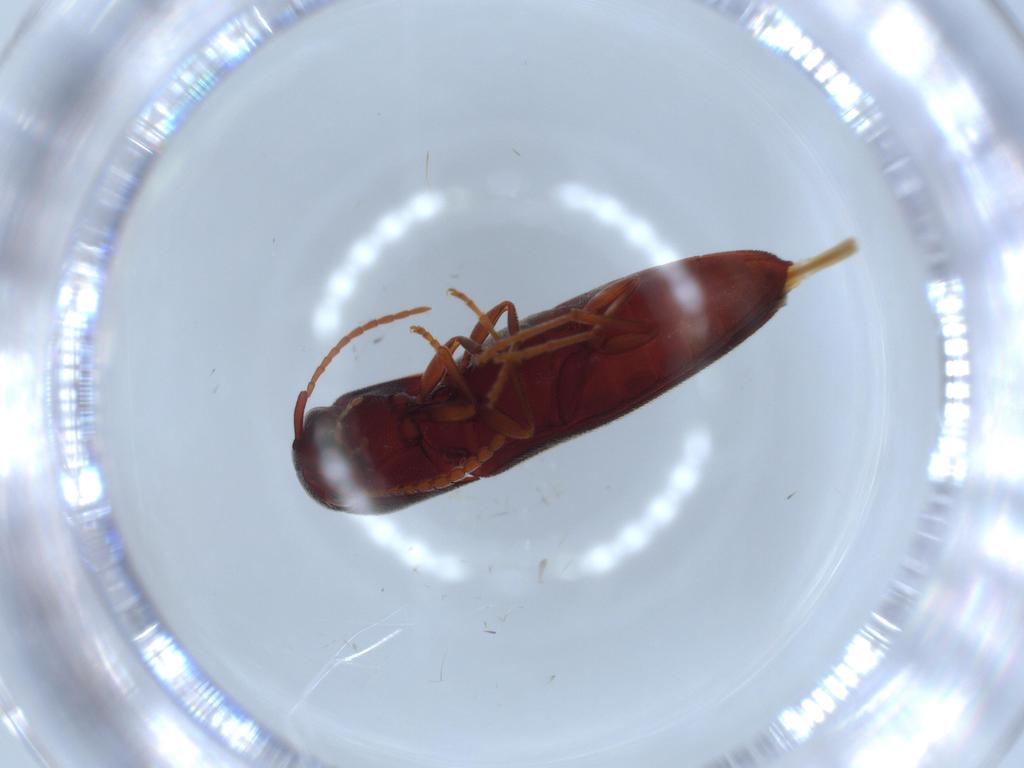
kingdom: Animalia
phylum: Arthropoda
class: Insecta
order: Coleoptera
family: Eucnemidae
